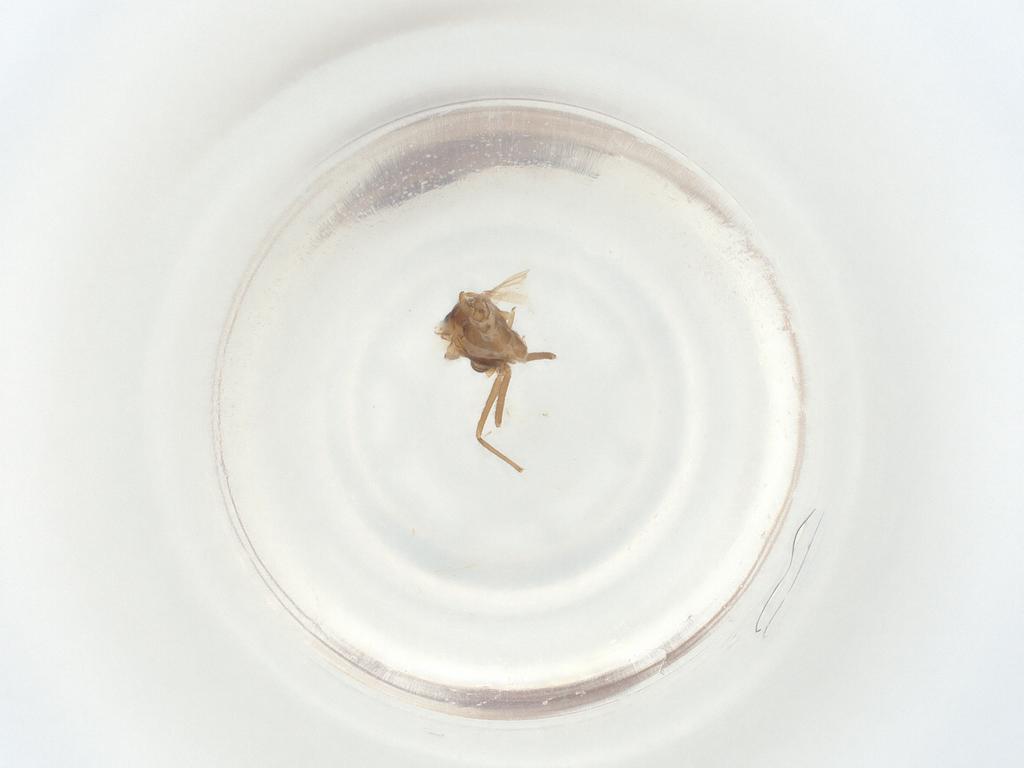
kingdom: Animalia
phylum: Arthropoda
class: Insecta
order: Diptera
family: Chironomidae
